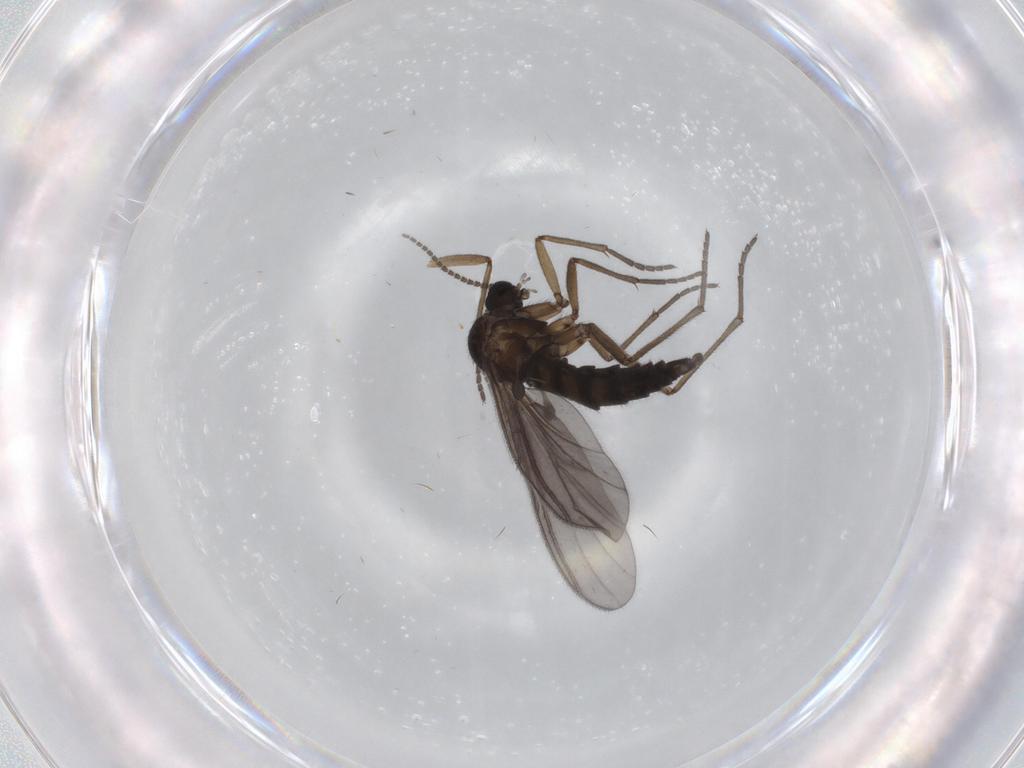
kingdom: Animalia
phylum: Arthropoda
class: Insecta
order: Diptera
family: Sciaridae
